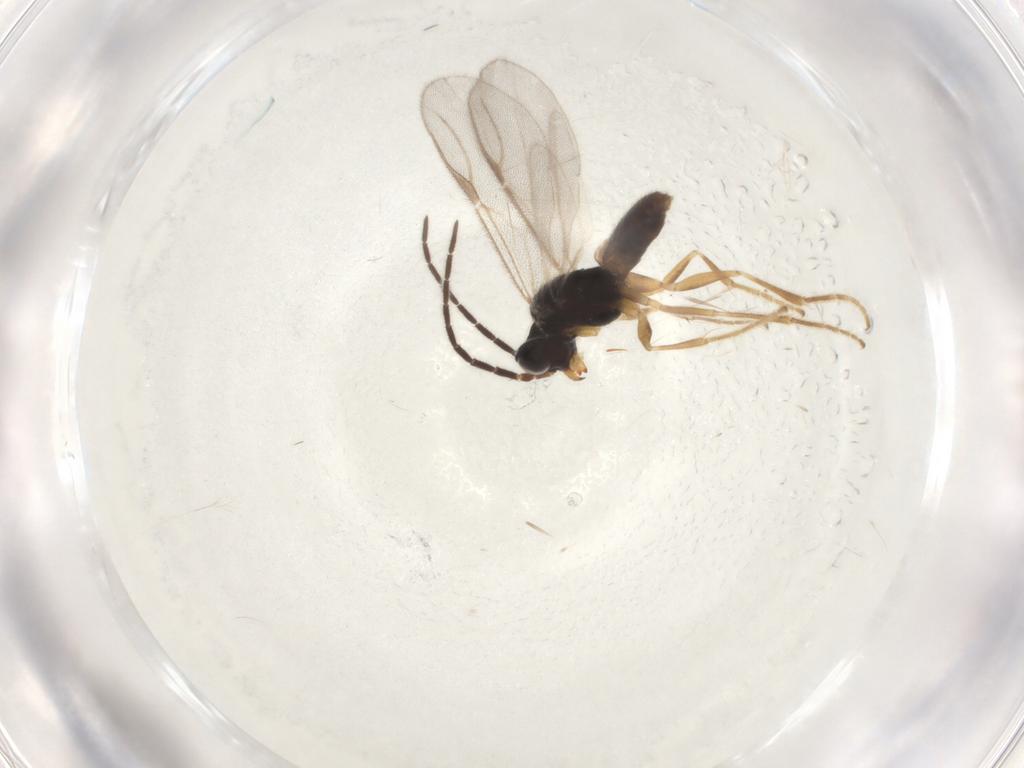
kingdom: Animalia
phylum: Arthropoda
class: Insecta
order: Hymenoptera
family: Dryinidae
